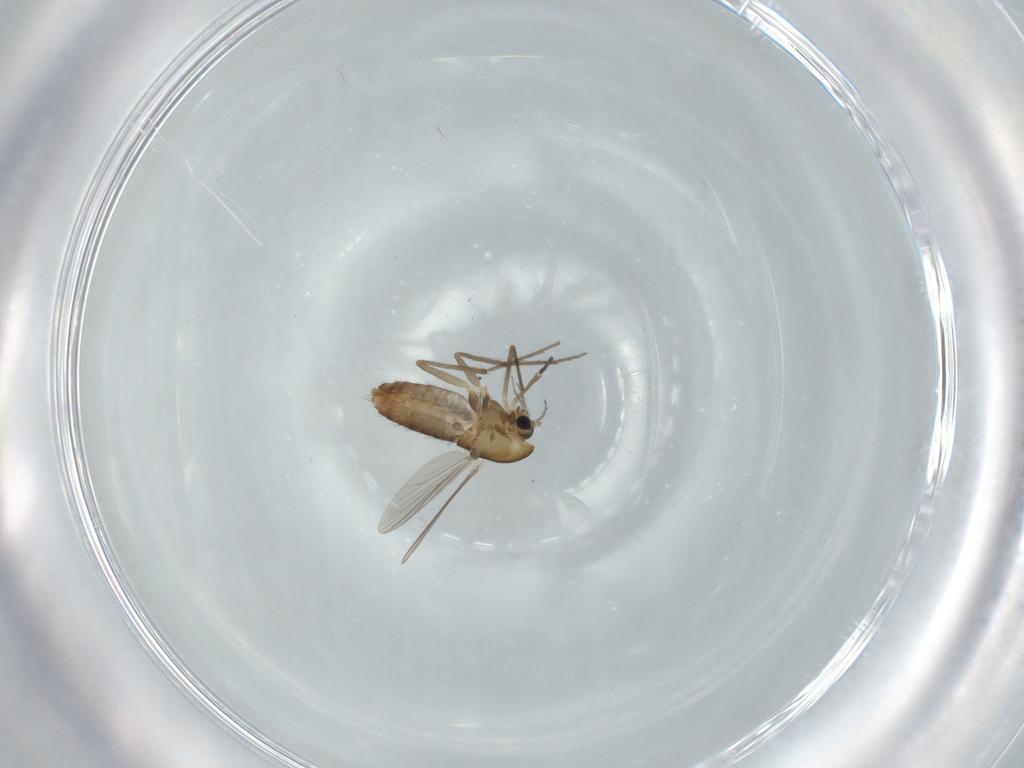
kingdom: Animalia
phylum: Arthropoda
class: Insecta
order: Diptera
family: Chironomidae
